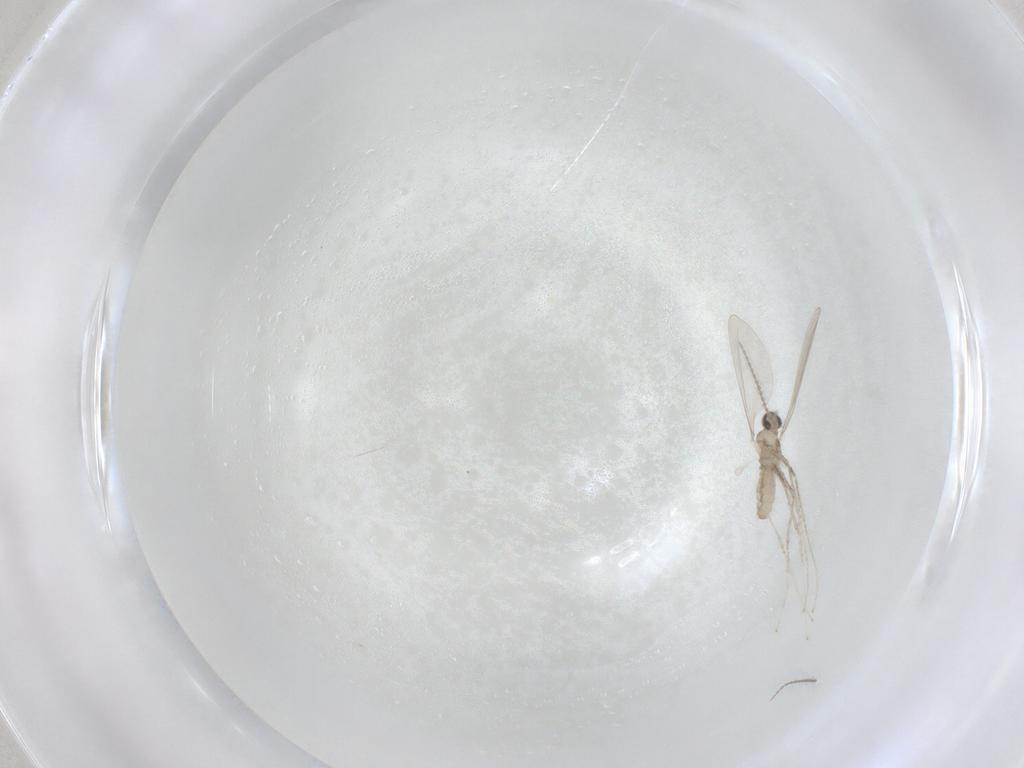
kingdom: Animalia
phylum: Arthropoda
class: Insecta
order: Diptera
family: Cecidomyiidae
